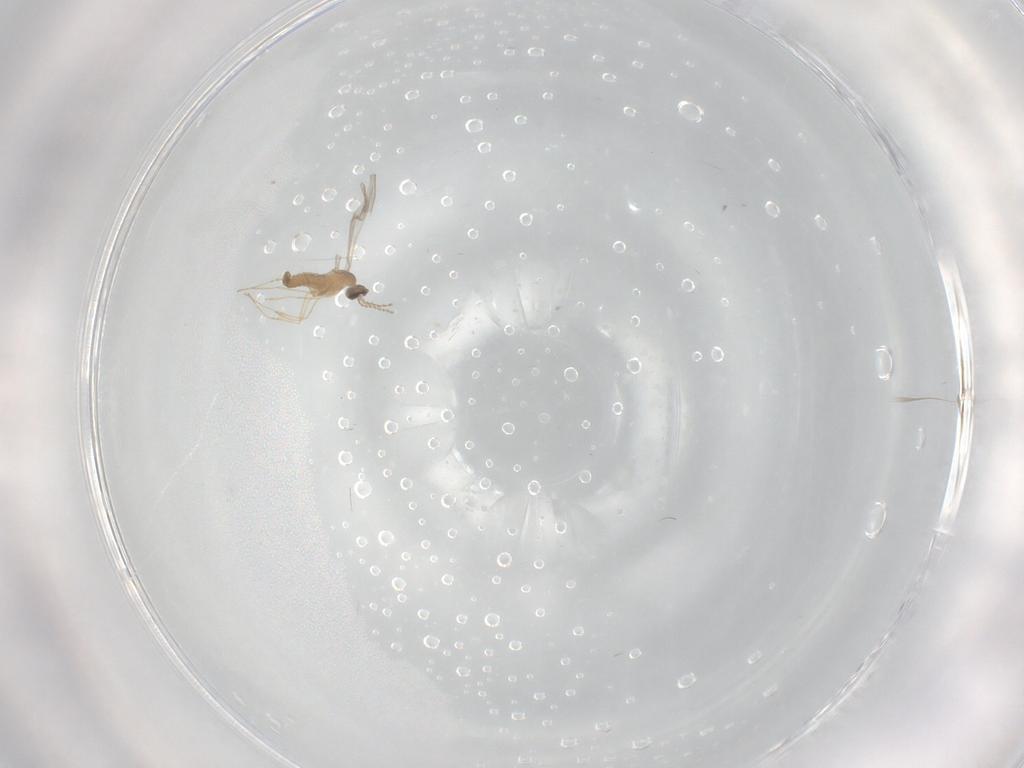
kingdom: Animalia
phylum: Arthropoda
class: Insecta
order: Diptera
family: Cecidomyiidae
